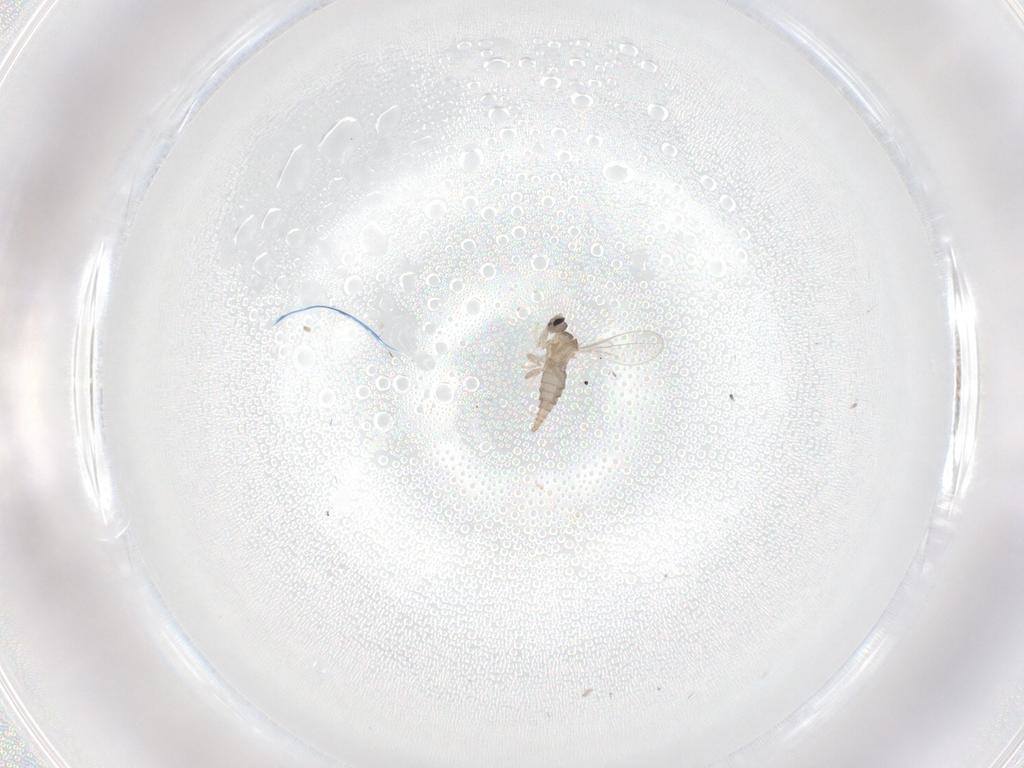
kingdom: Animalia
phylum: Arthropoda
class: Insecta
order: Diptera
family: Cecidomyiidae
